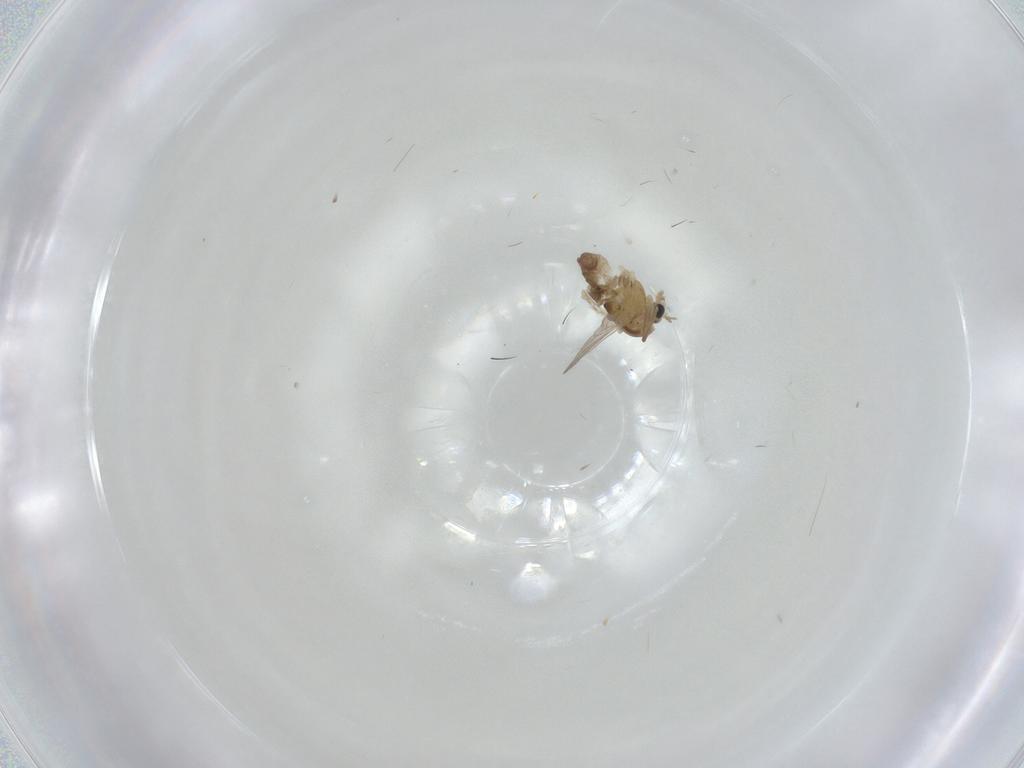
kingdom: Animalia
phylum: Arthropoda
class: Insecta
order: Diptera
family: Chironomidae
